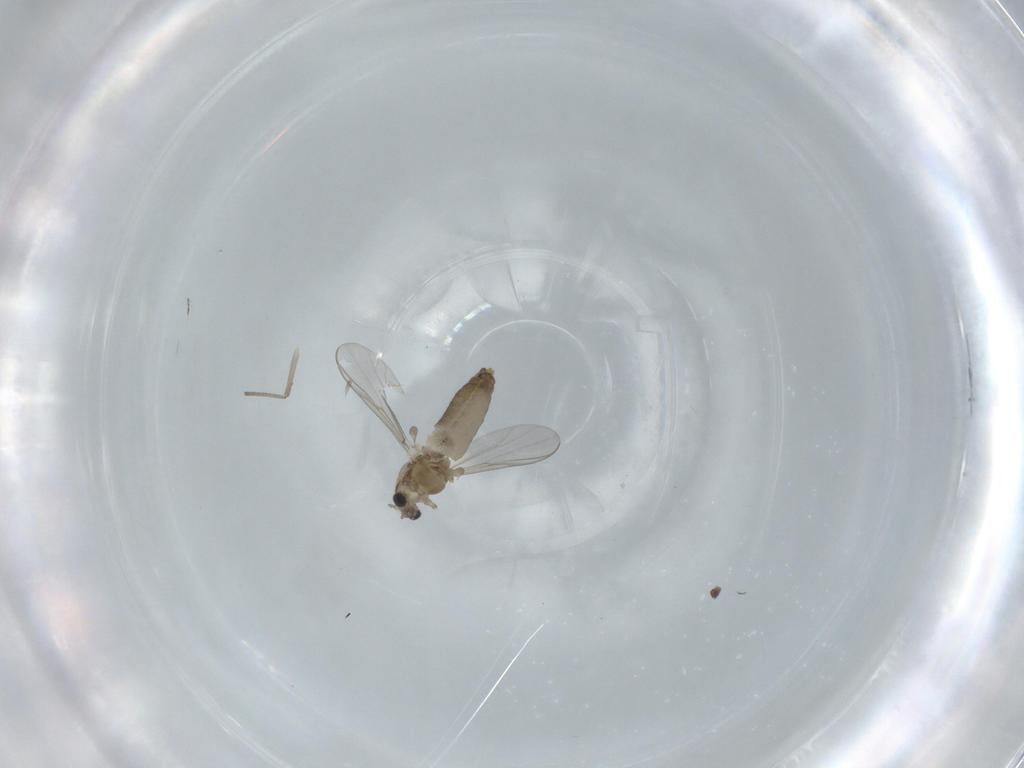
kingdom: Animalia
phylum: Arthropoda
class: Insecta
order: Diptera
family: Chironomidae
